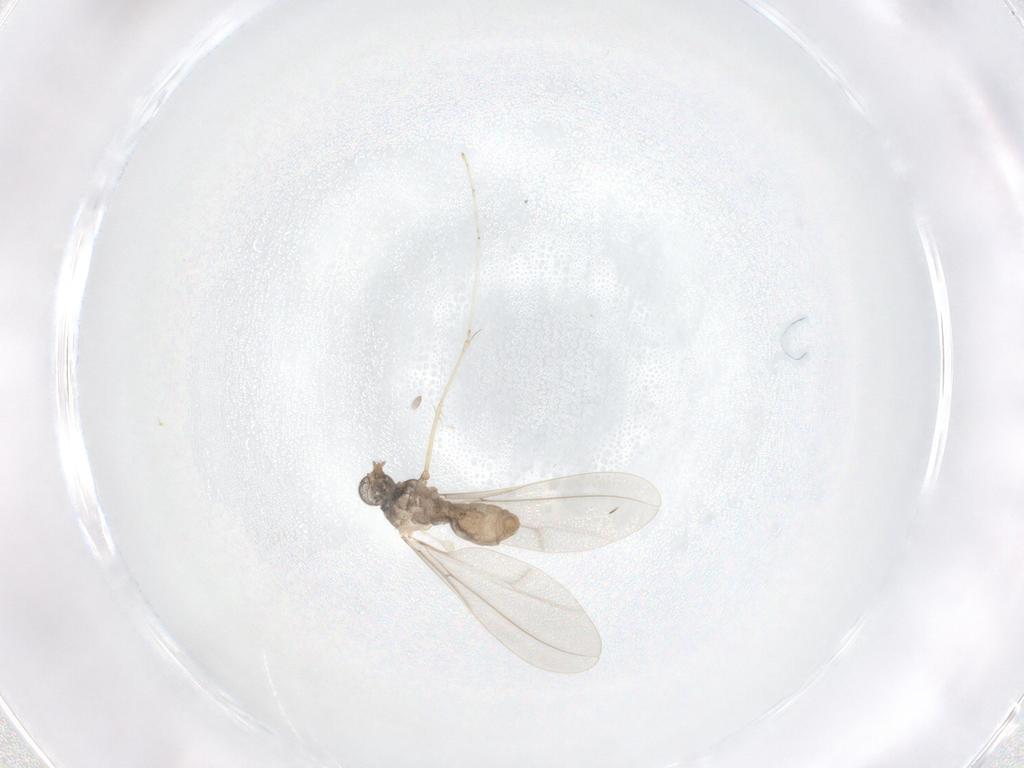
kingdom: Animalia
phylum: Arthropoda
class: Insecta
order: Diptera
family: Cecidomyiidae
